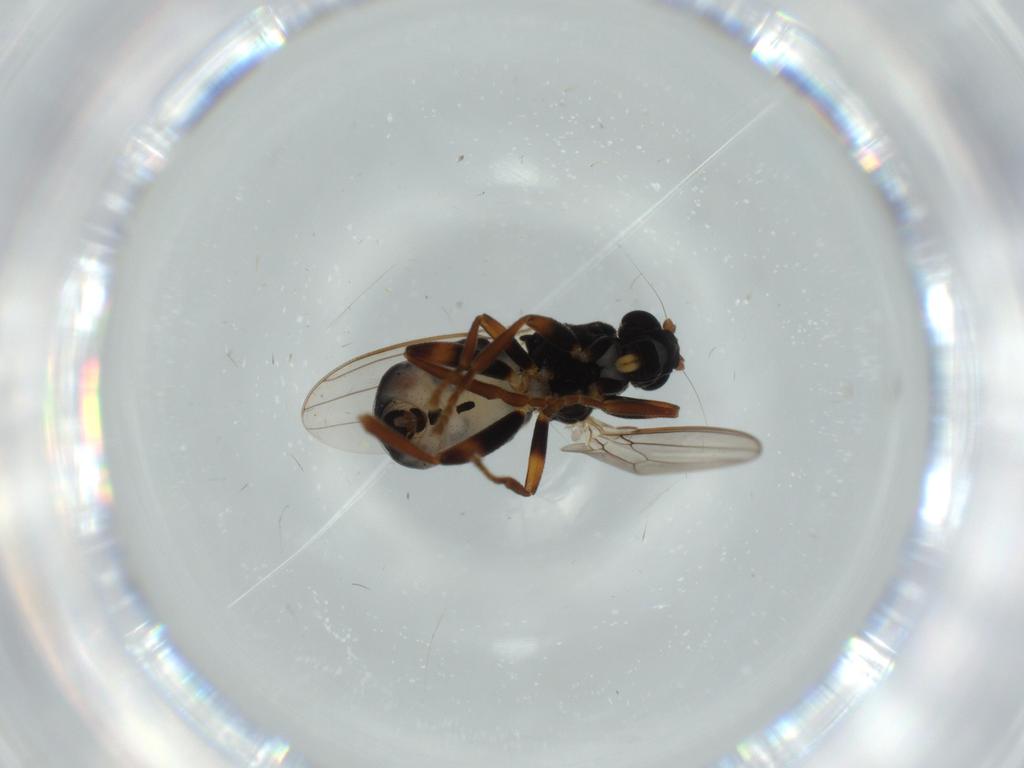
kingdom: Animalia
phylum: Arthropoda
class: Insecta
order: Diptera
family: Sphaeroceridae
